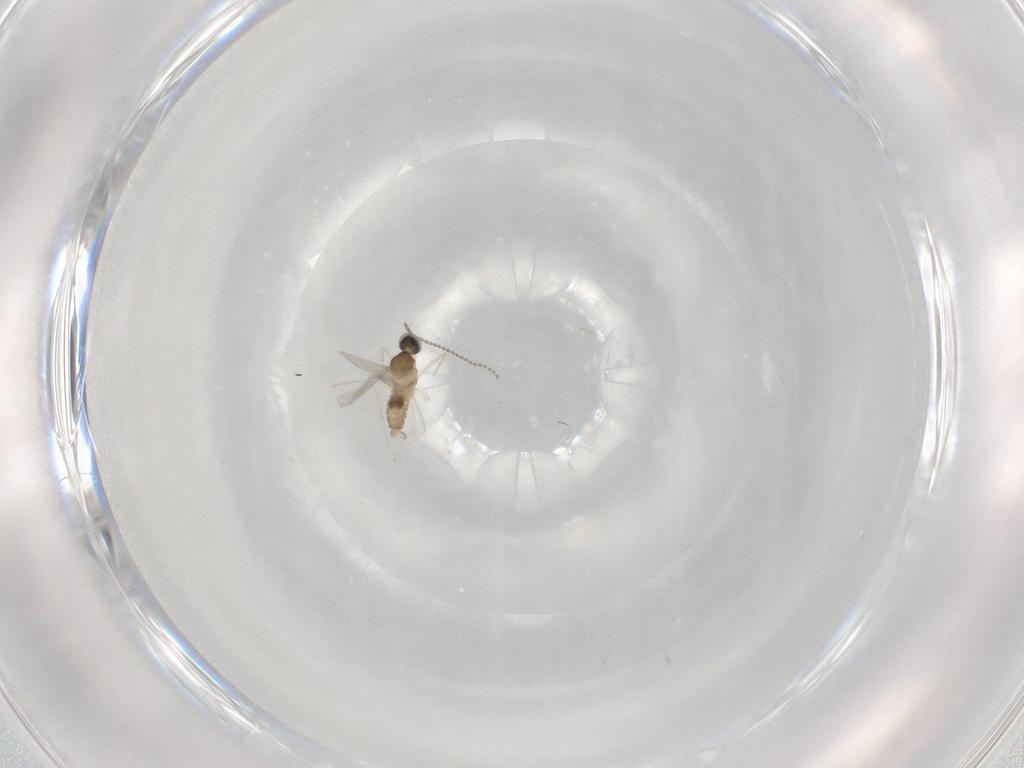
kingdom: Animalia
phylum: Arthropoda
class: Insecta
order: Diptera
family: Cecidomyiidae
